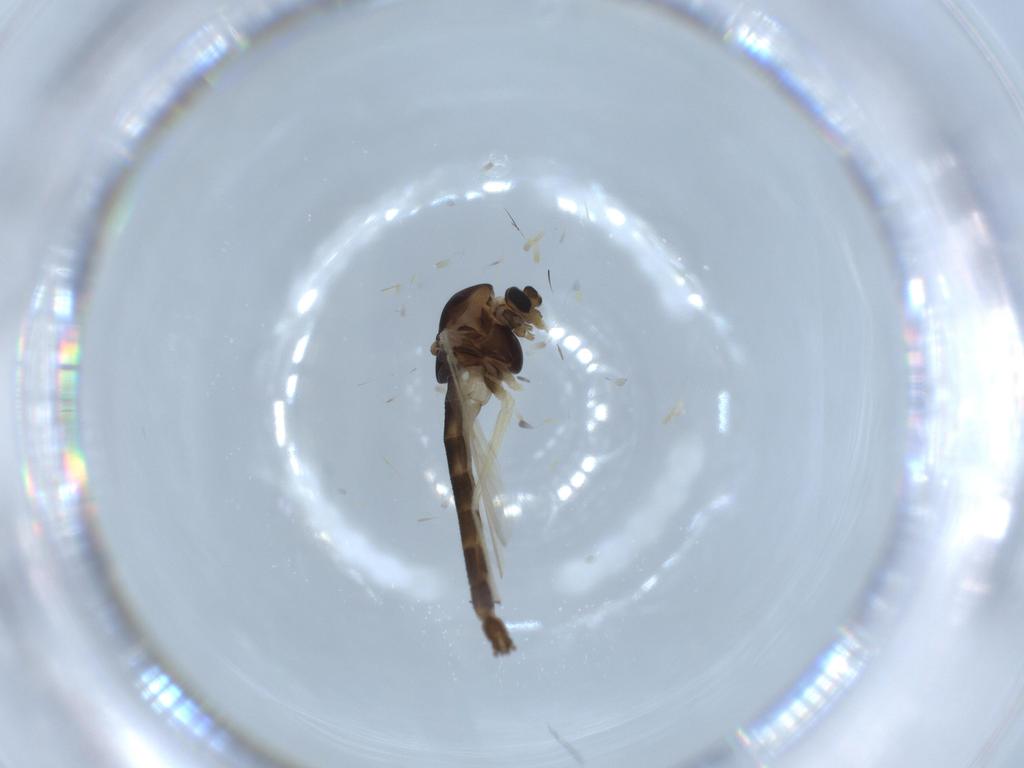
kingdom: Animalia
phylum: Arthropoda
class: Insecta
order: Diptera
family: Chironomidae
